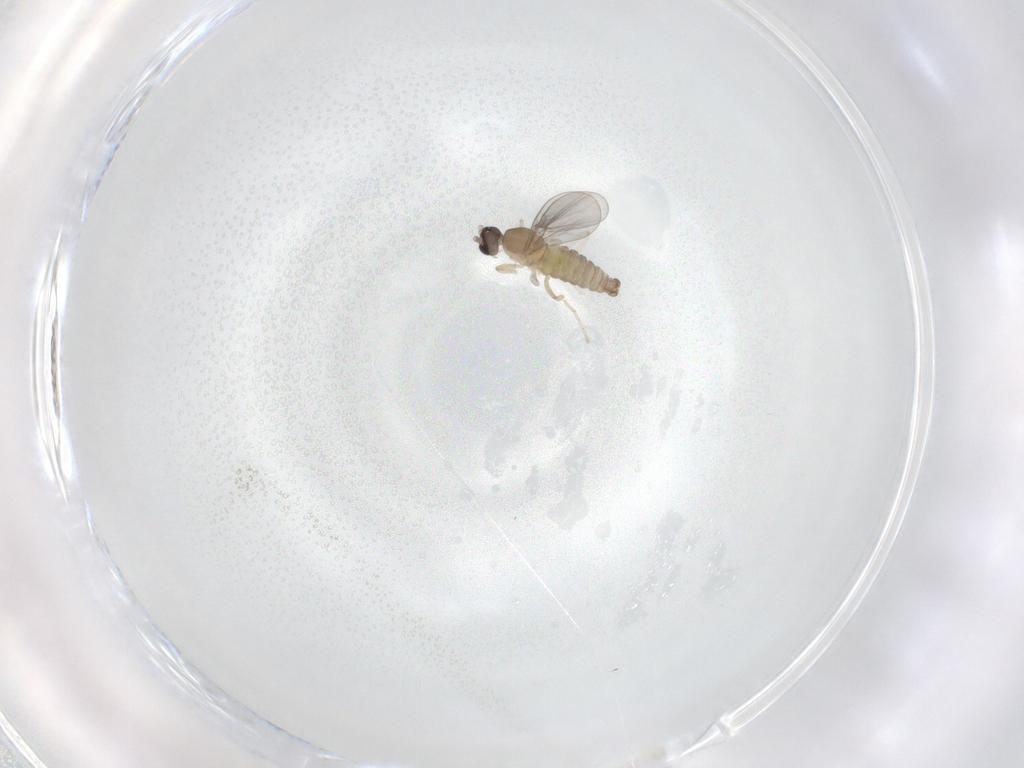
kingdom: Animalia
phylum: Arthropoda
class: Insecta
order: Diptera
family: Cecidomyiidae
